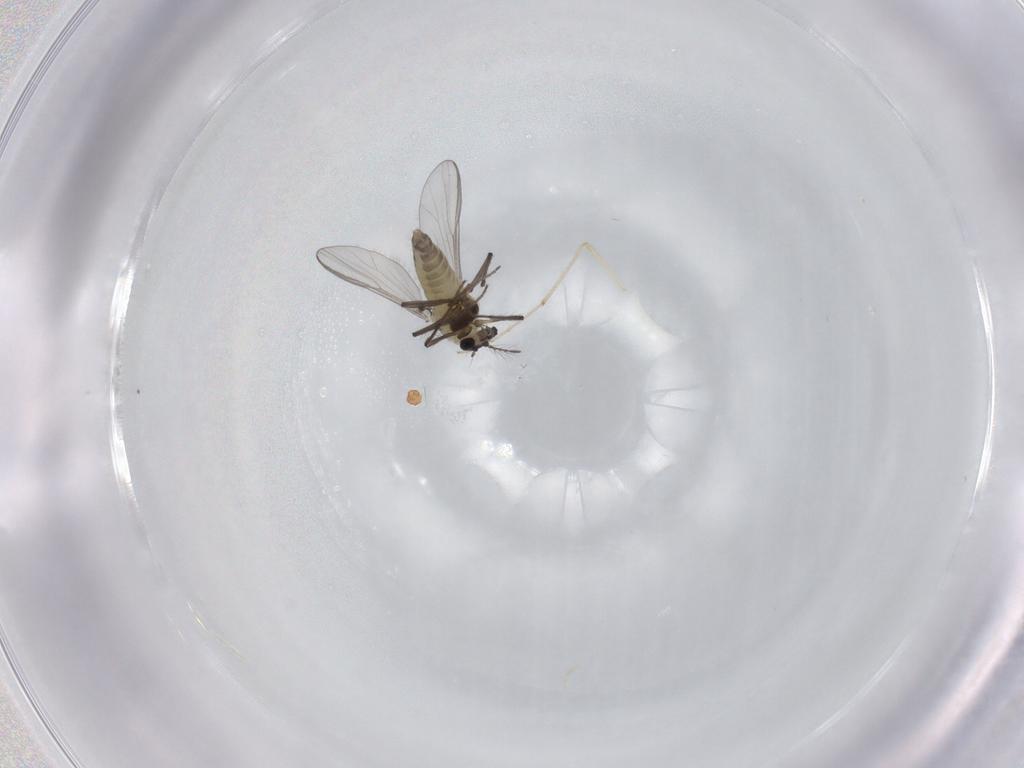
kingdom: Animalia
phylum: Arthropoda
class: Insecta
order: Diptera
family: Chironomidae
